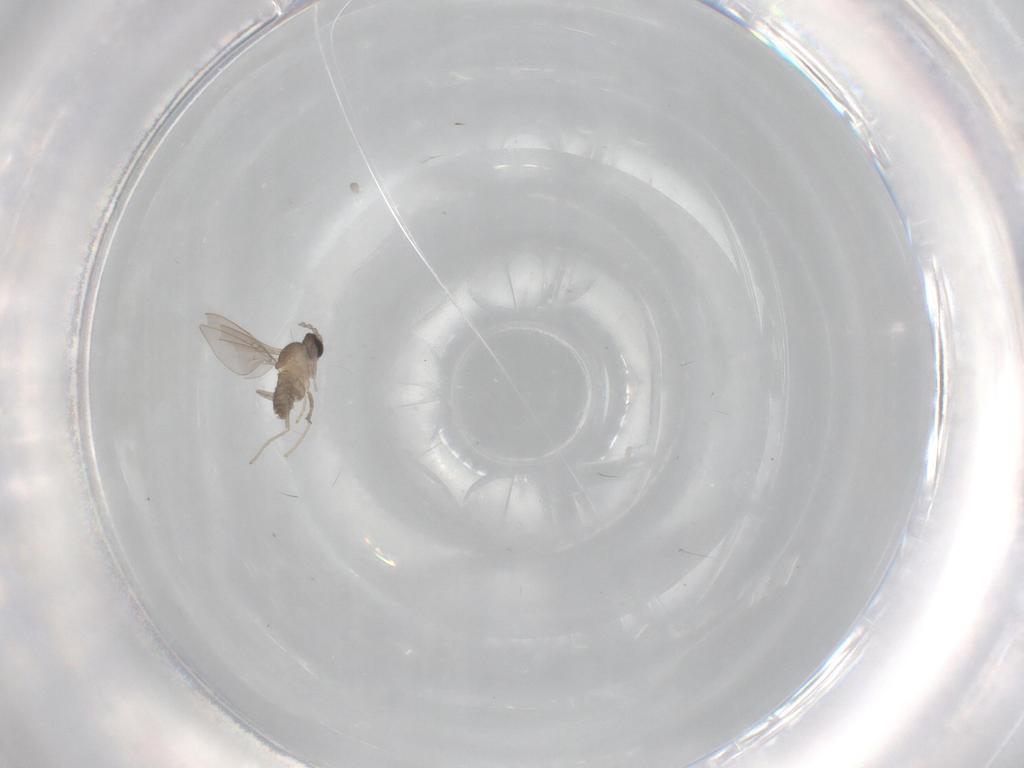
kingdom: Animalia
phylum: Arthropoda
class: Insecta
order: Diptera
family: Cecidomyiidae
